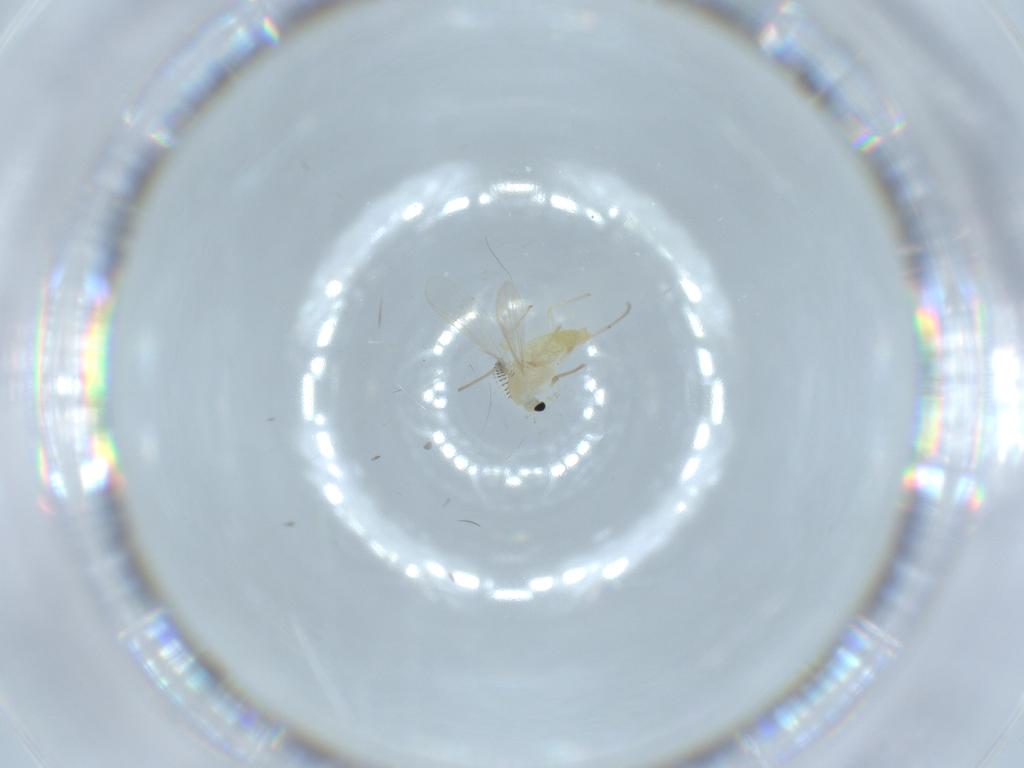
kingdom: Animalia
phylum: Arthropoda
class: Insecta
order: Diptera
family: Chironomidae
